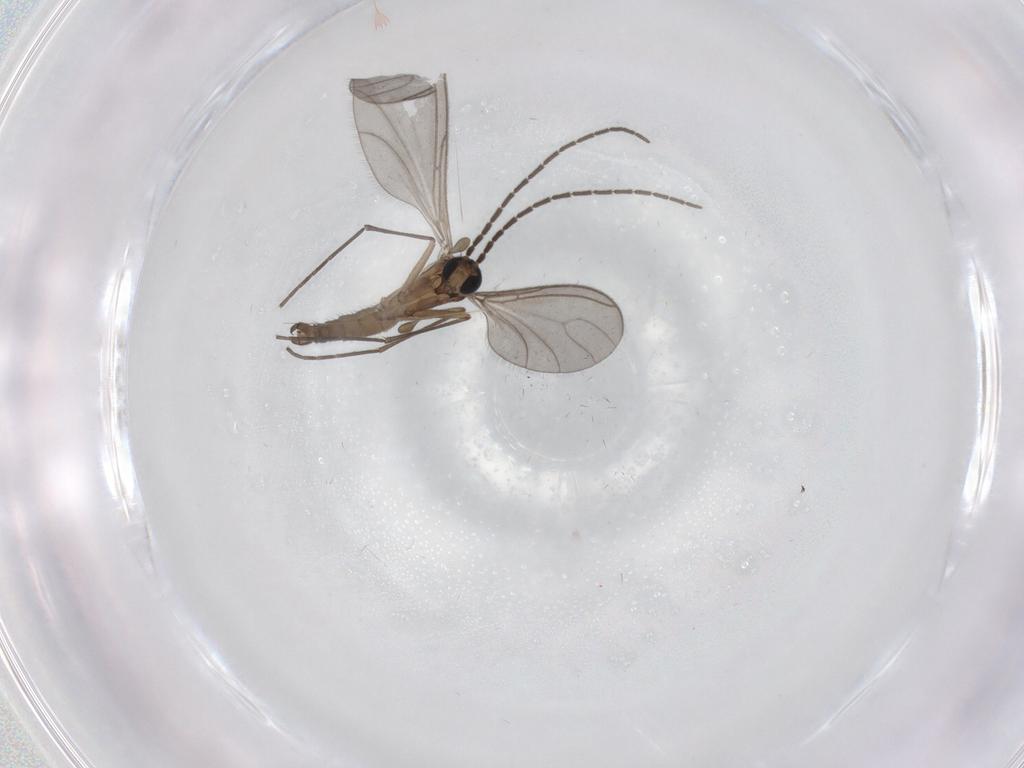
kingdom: Animalia
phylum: Arthropoda
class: Insecta
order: Diptera
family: Sciaridae
